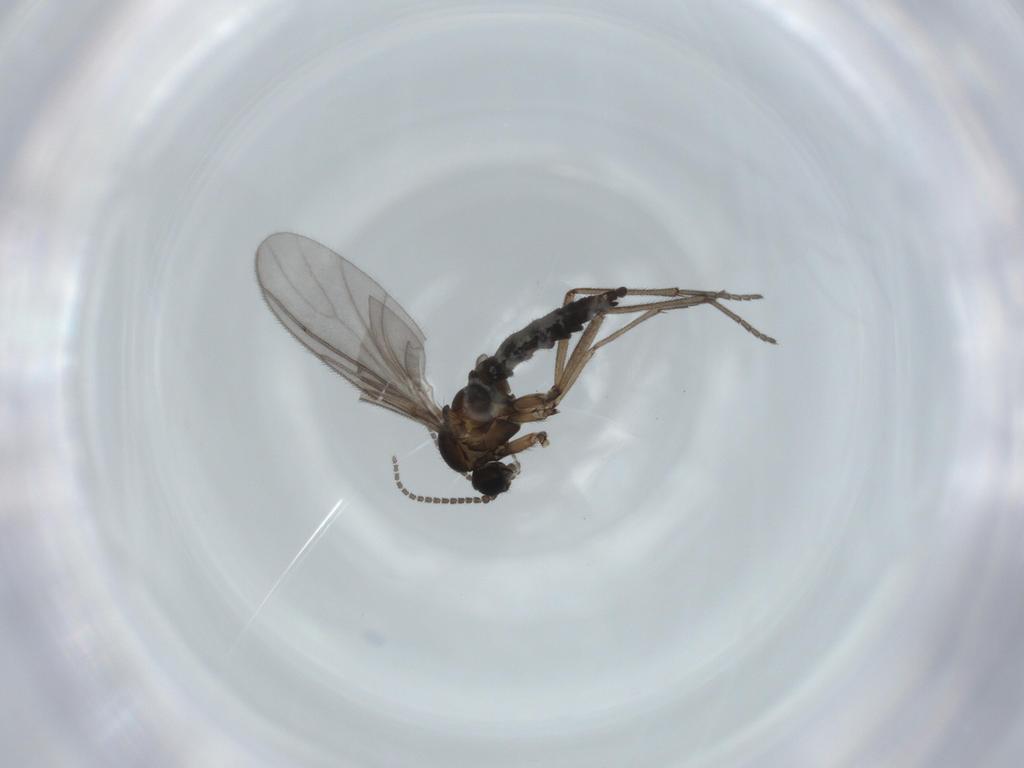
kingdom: Animalia
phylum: Arthropoda
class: Insecta
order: Diptera
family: Sciaridae
